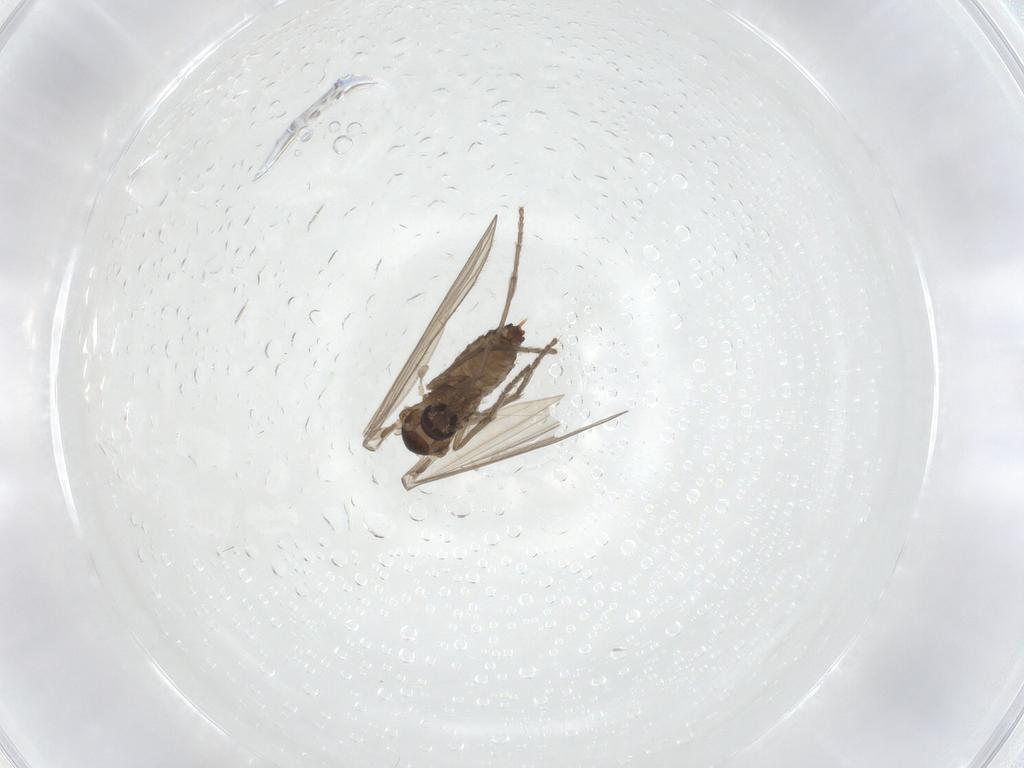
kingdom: Animalia
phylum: Arthropoda
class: Insecta
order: Diptera
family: Psychodidae
